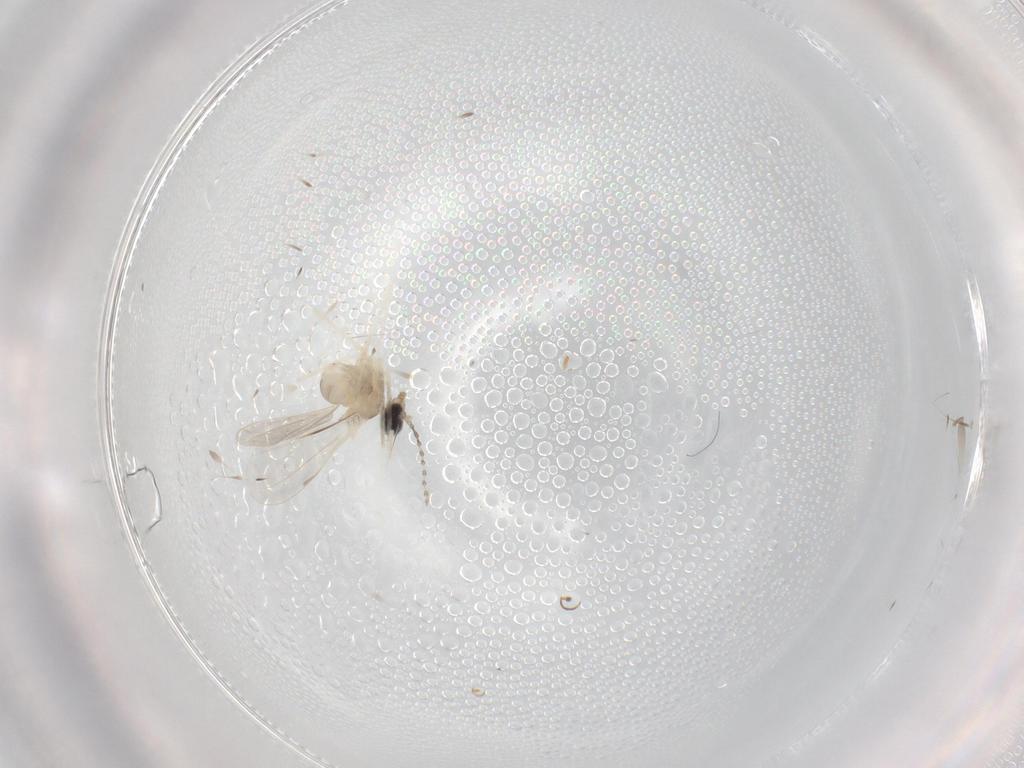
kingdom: Animalia
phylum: Arthropoda
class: Insecta
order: Diptera
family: Cecidomyiidae
